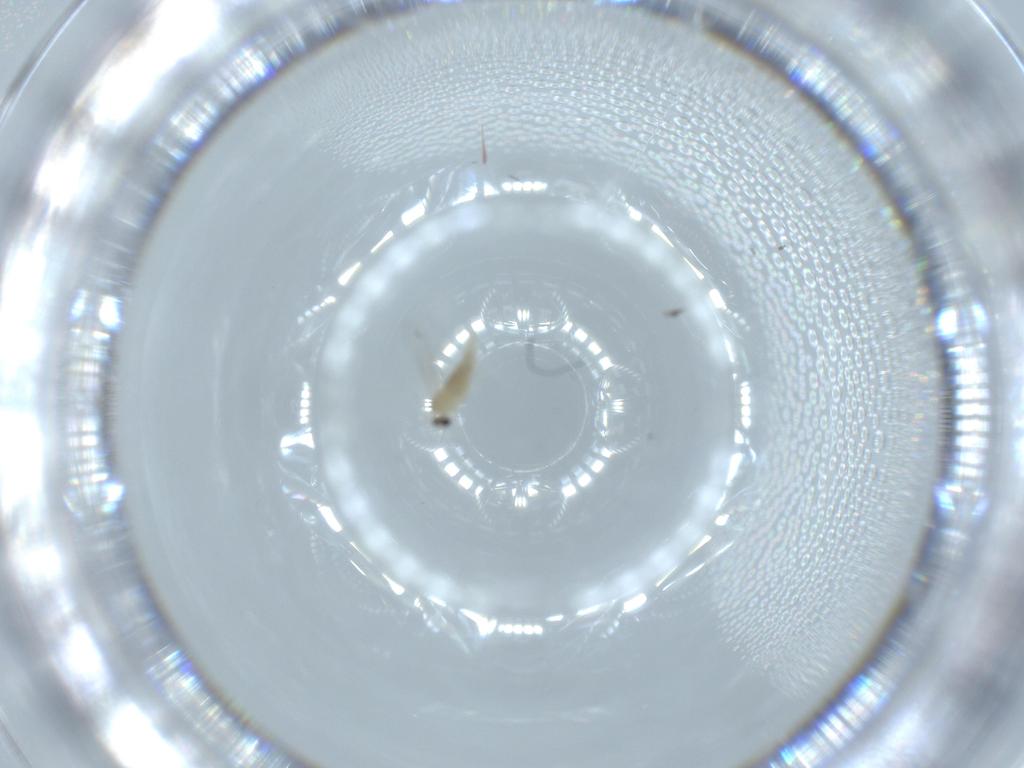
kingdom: Animalia
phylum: Arthropoda
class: Insecta
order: Diptera
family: Cecidomyiidae
